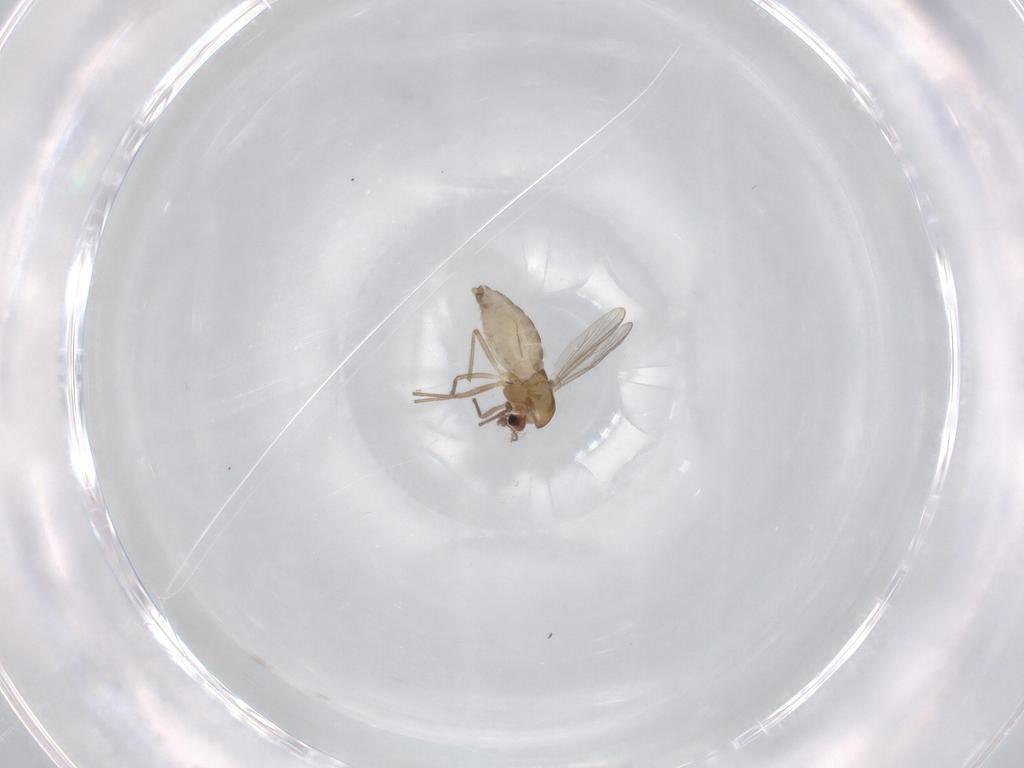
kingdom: Animalia
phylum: Arthropoda
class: Insecta
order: Diptera
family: Chironomidae
